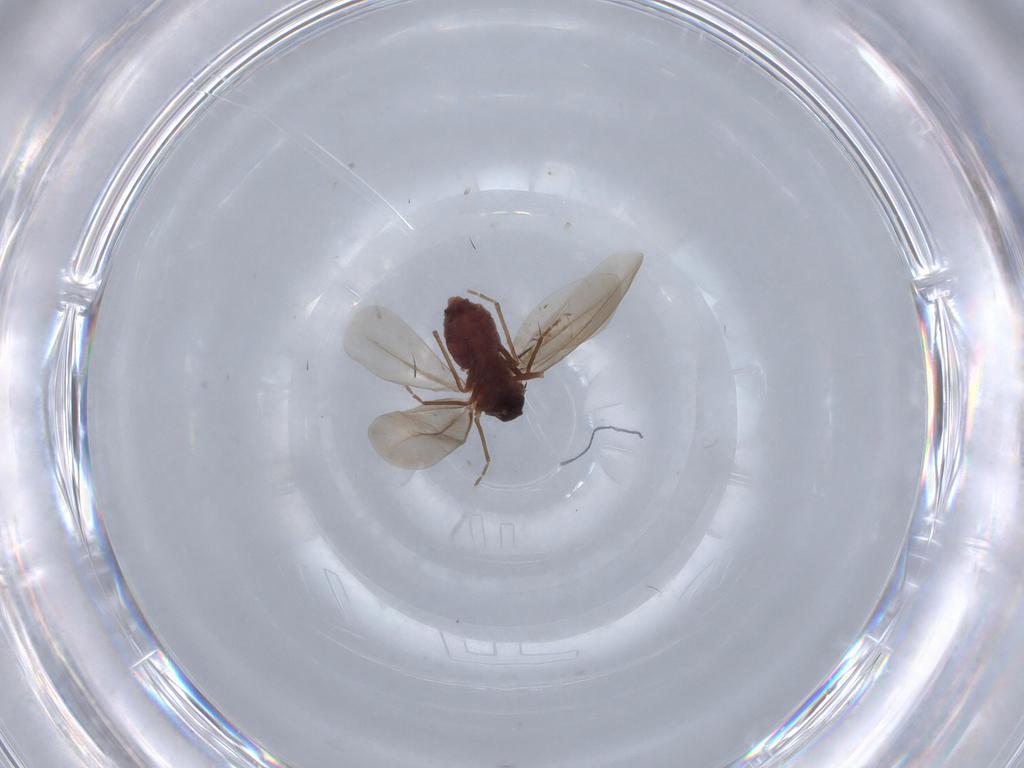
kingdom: Animalia
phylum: Arthropoda
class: Insecta
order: Hemiptera
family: Aleyrodidae
